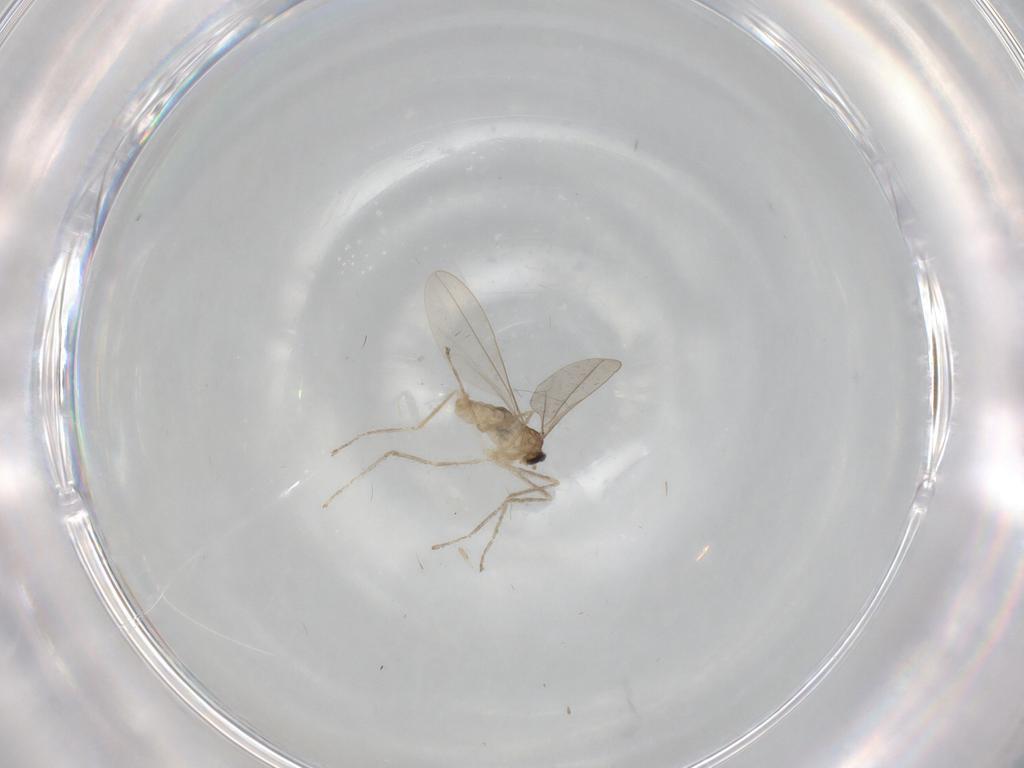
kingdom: Animalia
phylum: Arthropoda
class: Insecta
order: Diptera
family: Cecidomyiidae
